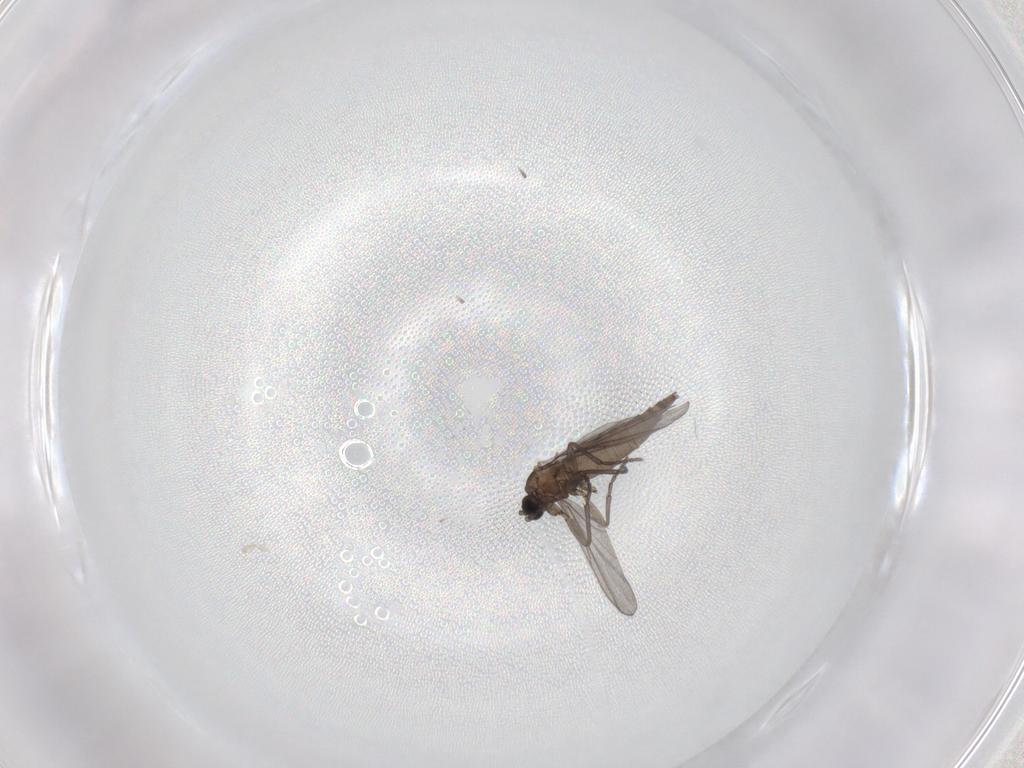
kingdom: Animalia
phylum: Arthropoda
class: Insecta
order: Diptera
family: Sciaridae
